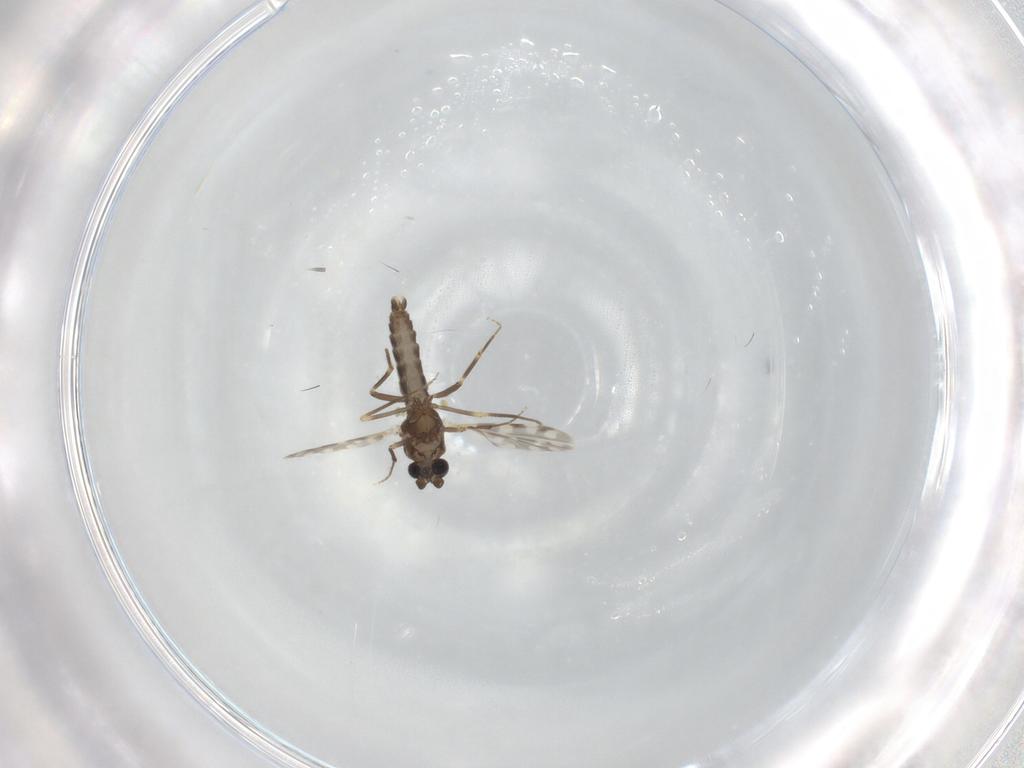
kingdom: Animalia
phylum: Arthropoda
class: Insecta
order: Diptera
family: Ceratopogonidae
